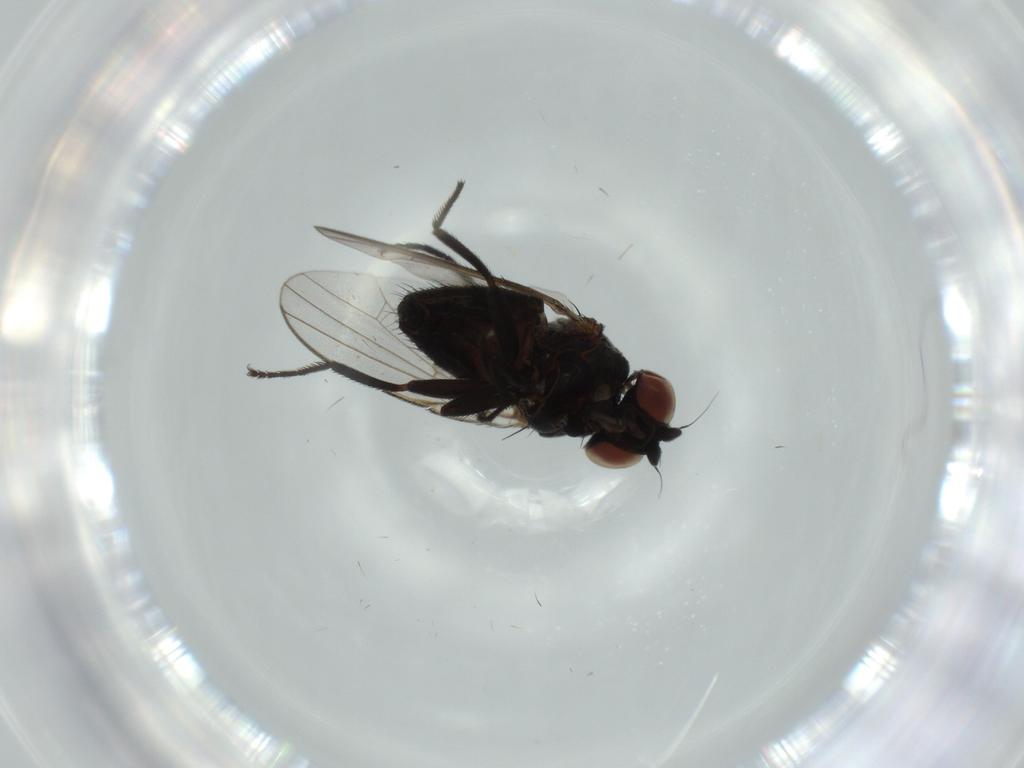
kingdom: Animalia
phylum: Arthropoda
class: Insecta
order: Diptera
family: Milichiidae
